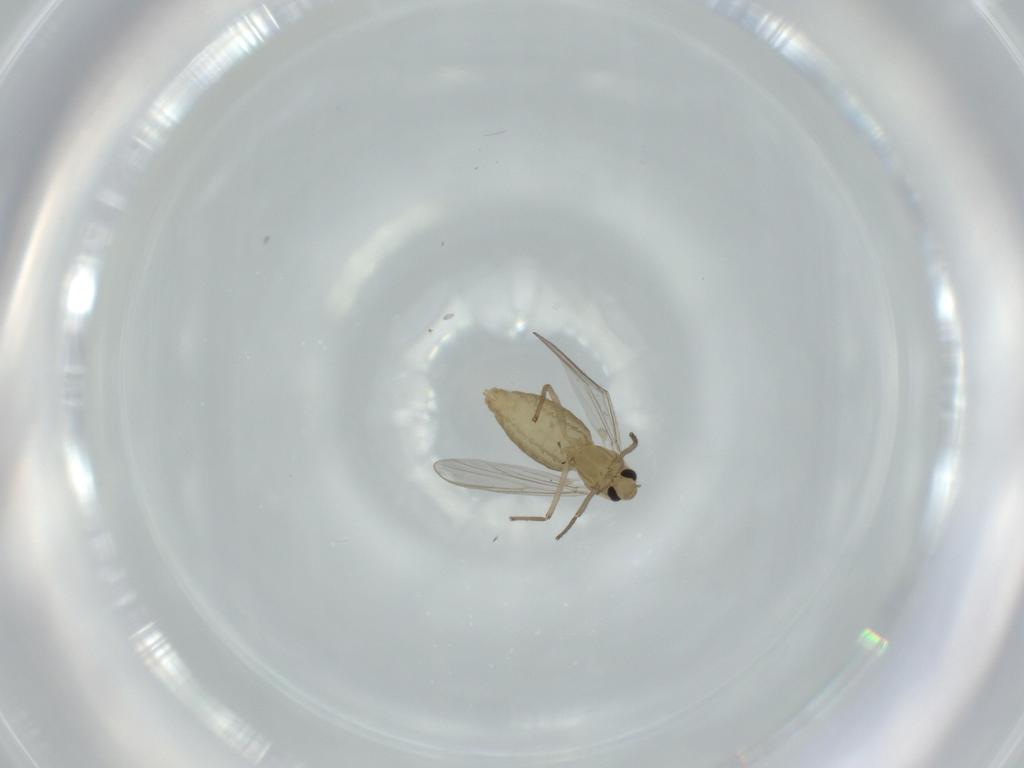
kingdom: Animalia
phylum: Arthropoda
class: Insecta
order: Diptera
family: Chironomidae
